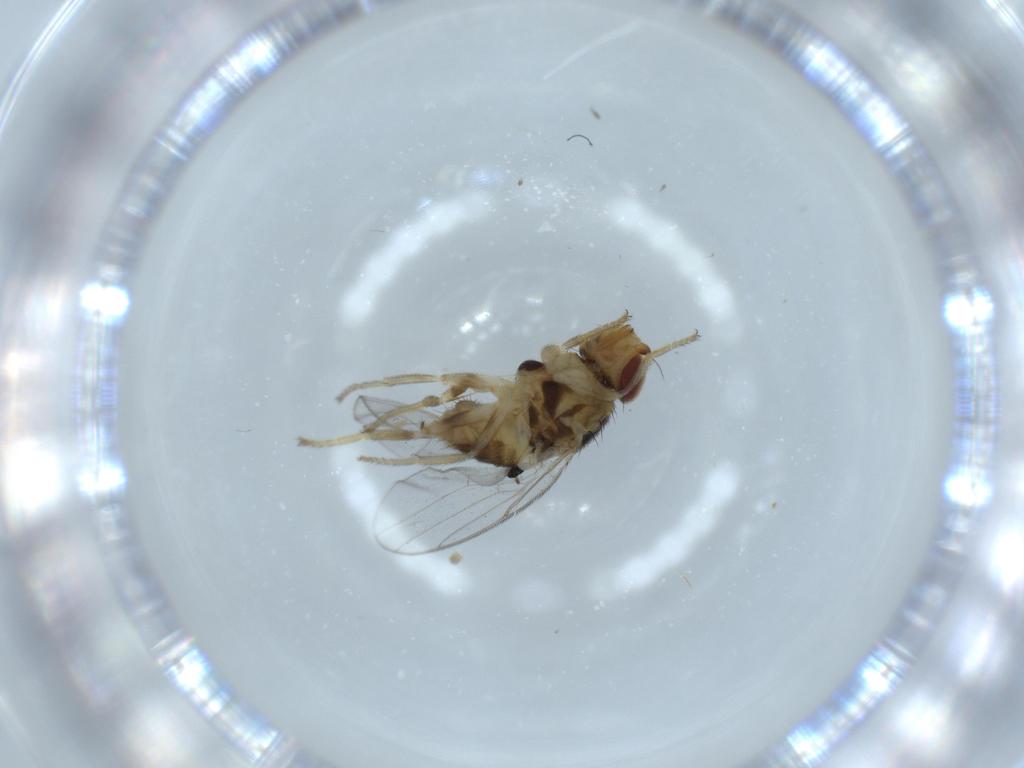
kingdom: Animalia
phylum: Arthropoda
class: Insecta
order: Diptera
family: Chloropidae
